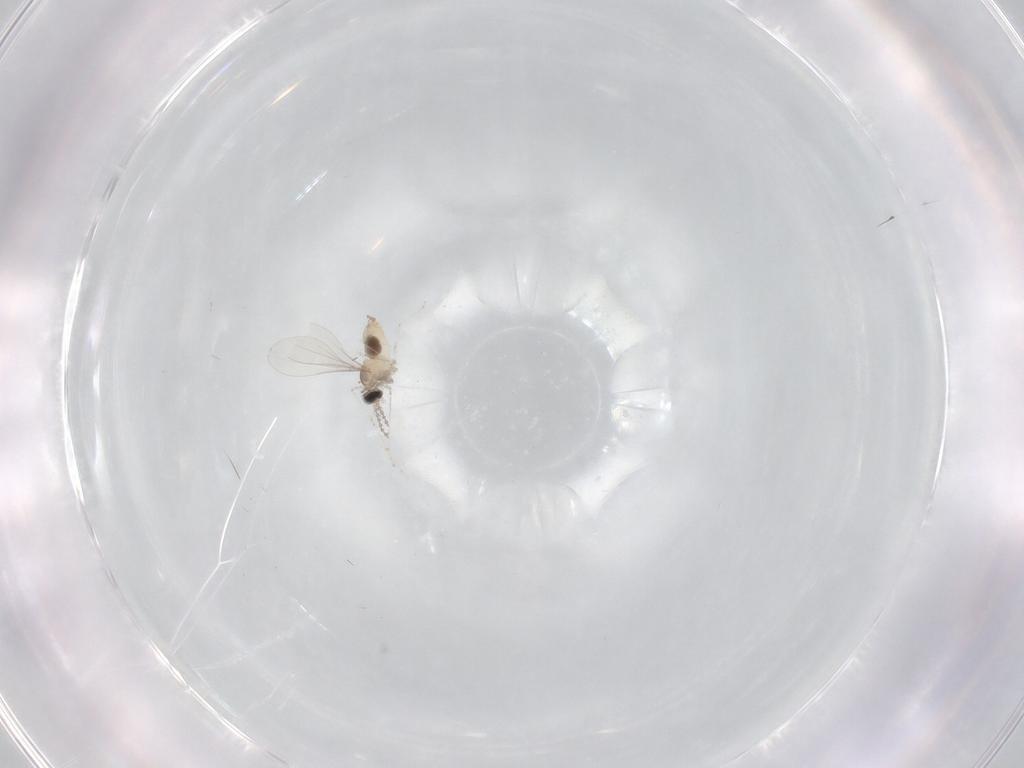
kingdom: Animalia
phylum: Arthropoda
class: Insecta
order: Diptera
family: Cecidomyiidae
